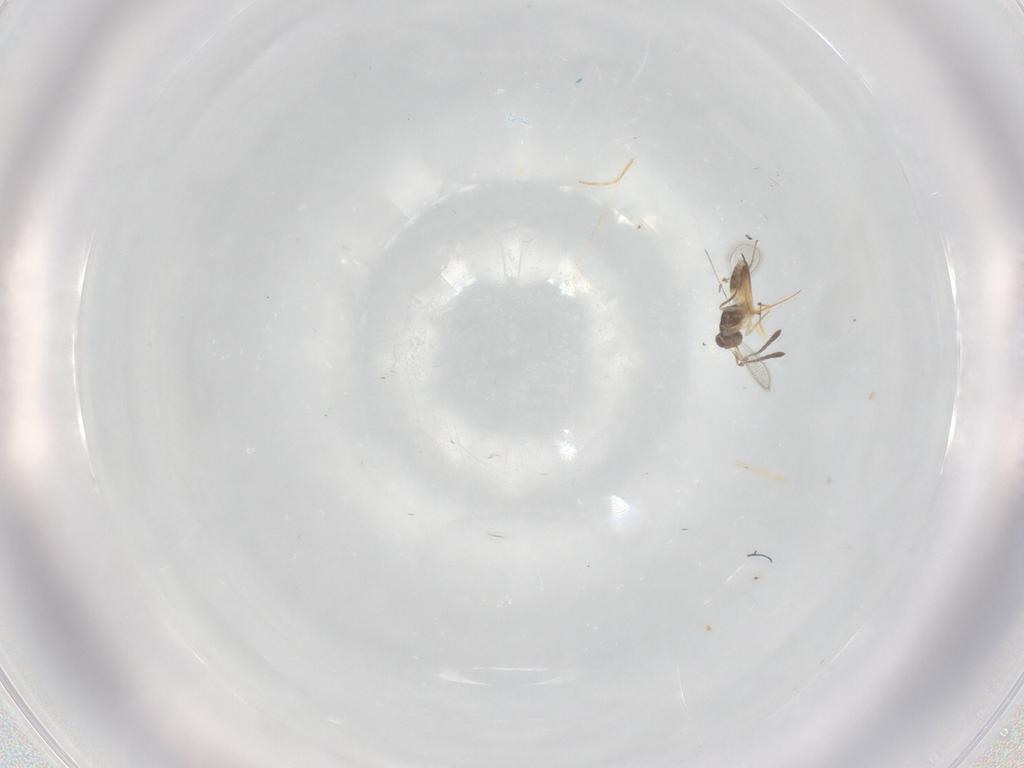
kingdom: Animalia
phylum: Arthropoda
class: Insecta
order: Hymenoptera
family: Mymaridae
